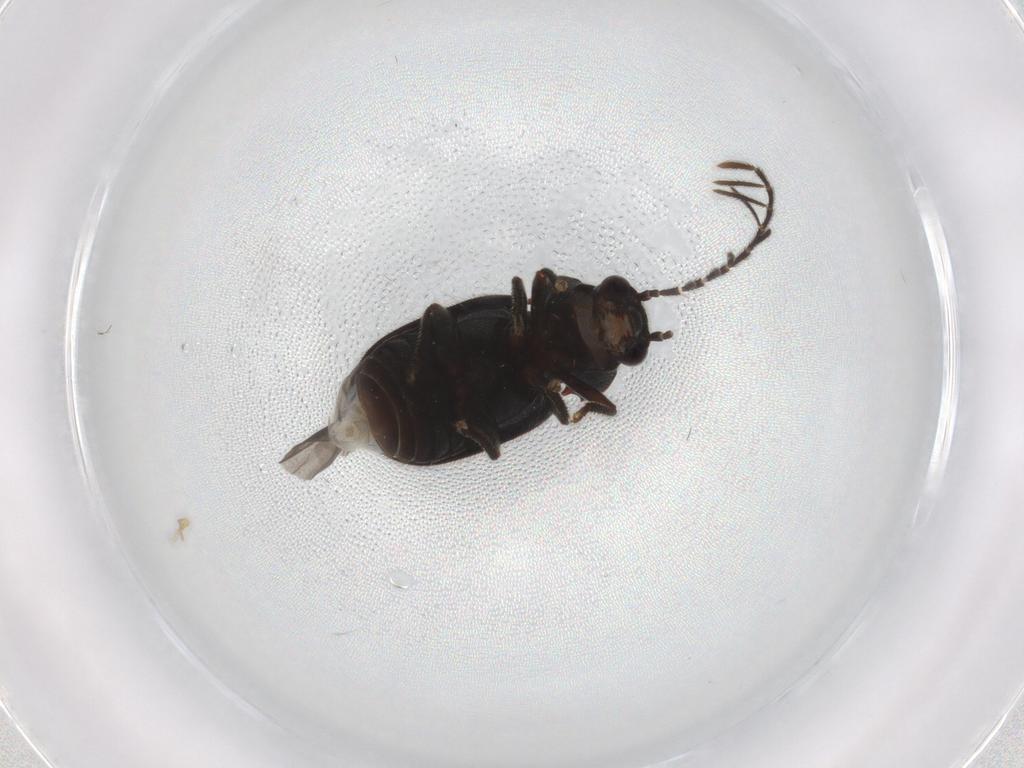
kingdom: Animalia
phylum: Arthropoda
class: Insecta
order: Coleoptera
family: Ptilodactylidae
